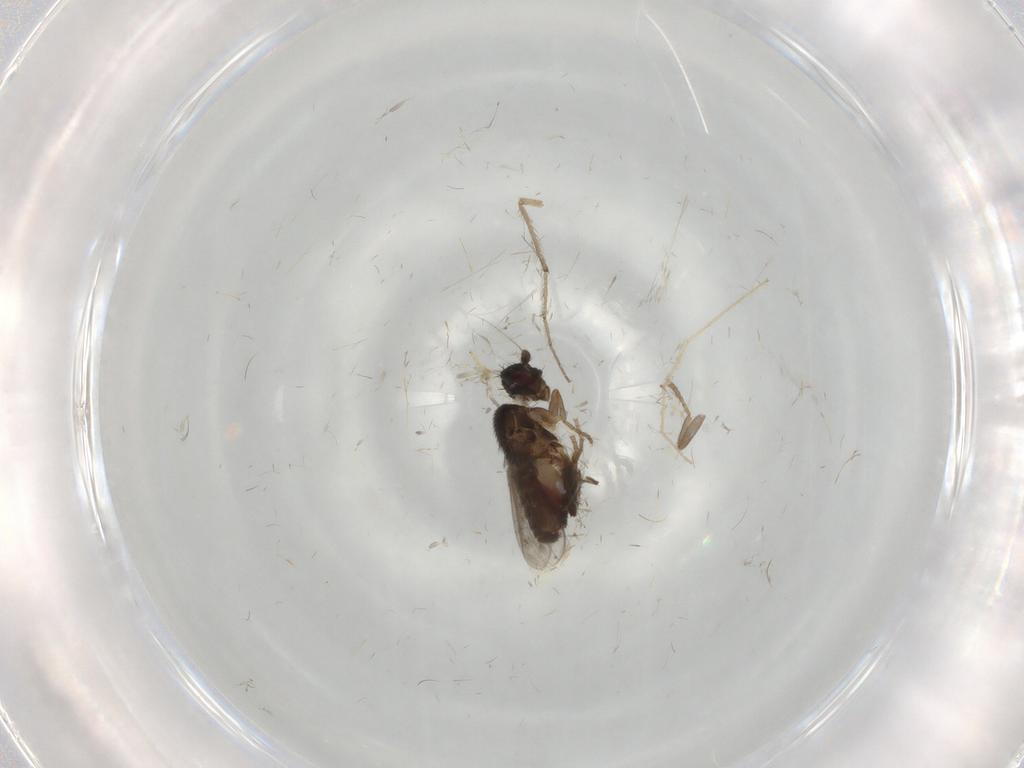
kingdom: Animalia
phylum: Arthropoda
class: Insecta
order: Diptera
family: Sphaeroceridae
